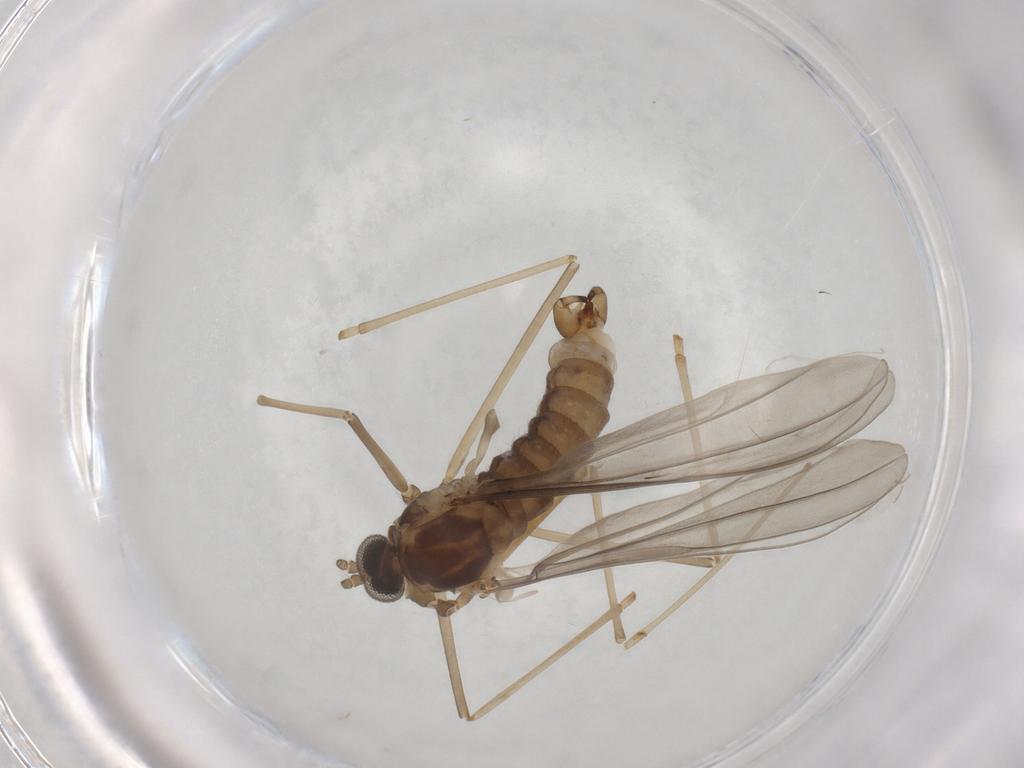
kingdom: Animalia
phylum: Arthropoda
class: Insecta
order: Diptera
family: Cecidomyiidae
